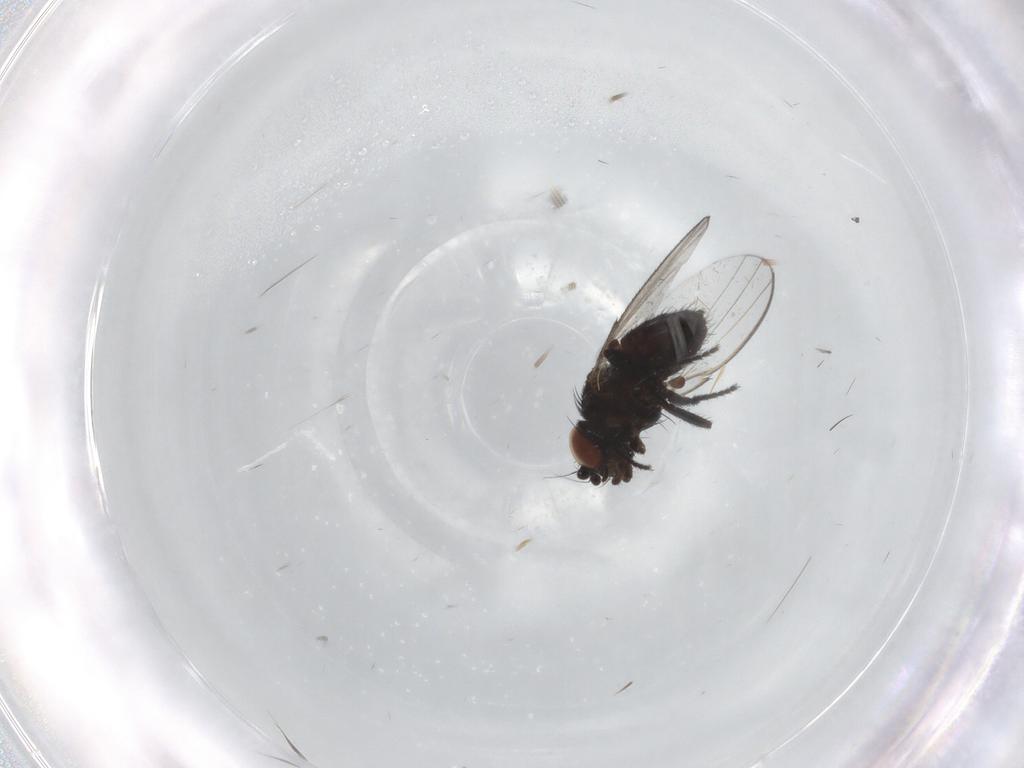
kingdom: Animalia
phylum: Arthropoda
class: Insecta
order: Diptera
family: Milichiidae
